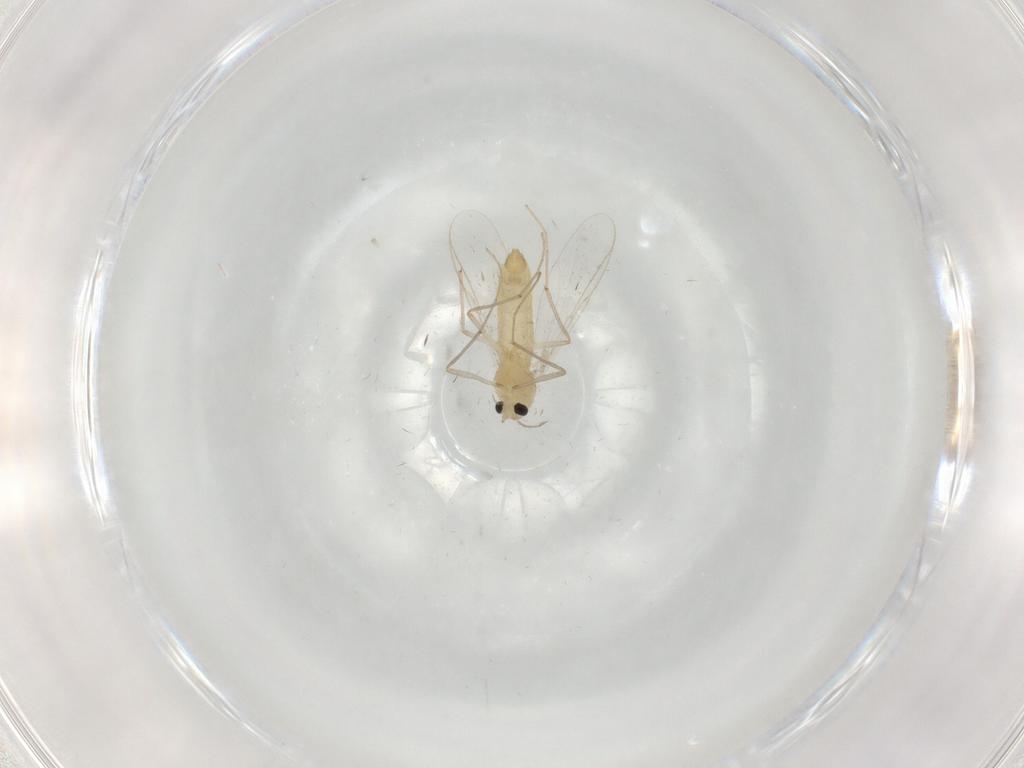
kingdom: Animalia
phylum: Arthropoda
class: Insecta
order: Diptera
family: Chironomidae
